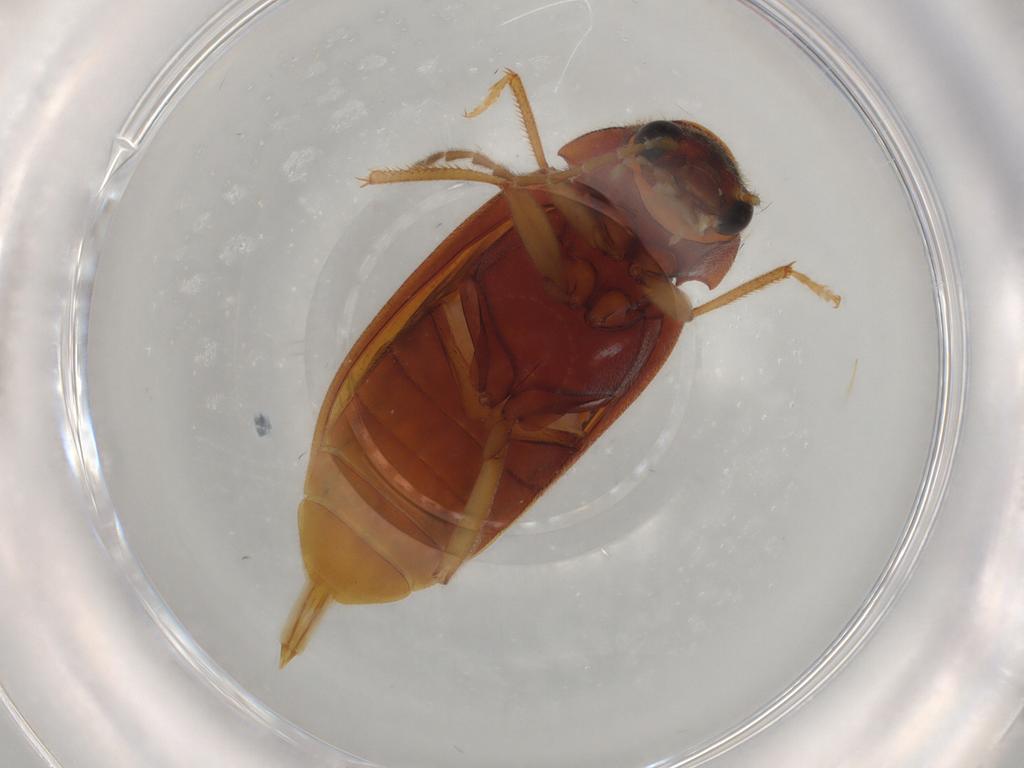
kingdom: Animalia
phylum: Arthropoda
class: Insecta
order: Coleoptera
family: Ptilodactylidae
